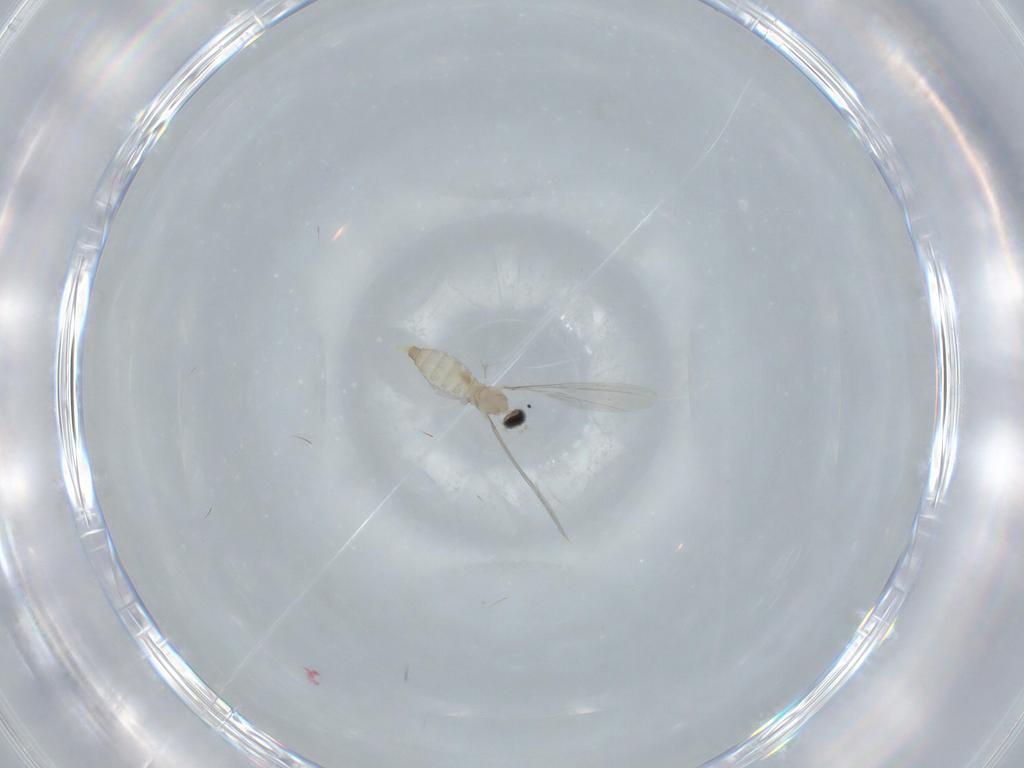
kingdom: Animalia
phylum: Arthropoda
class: Insecta
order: Diptera
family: Cecidomyiidae
